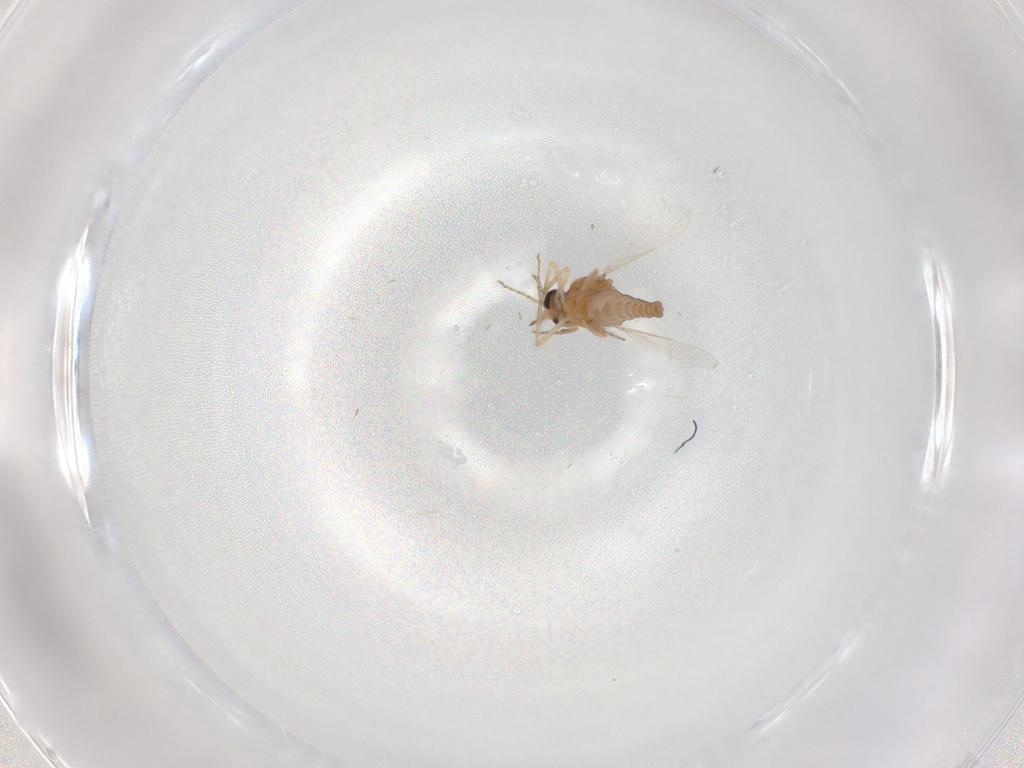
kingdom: Animalia
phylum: Arthropoda
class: Insecta
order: Diptera
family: Ceratopogonidae
